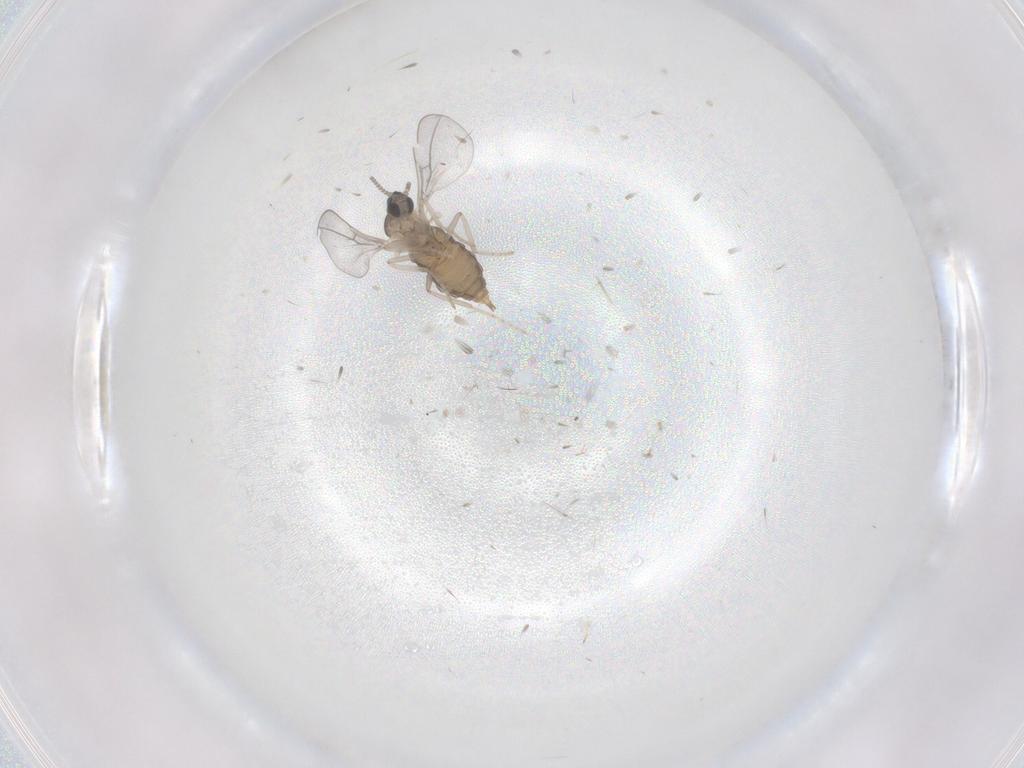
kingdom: Animalia
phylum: Arthropoda
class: Insecta
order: Diptera
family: Cecidomyiidae
